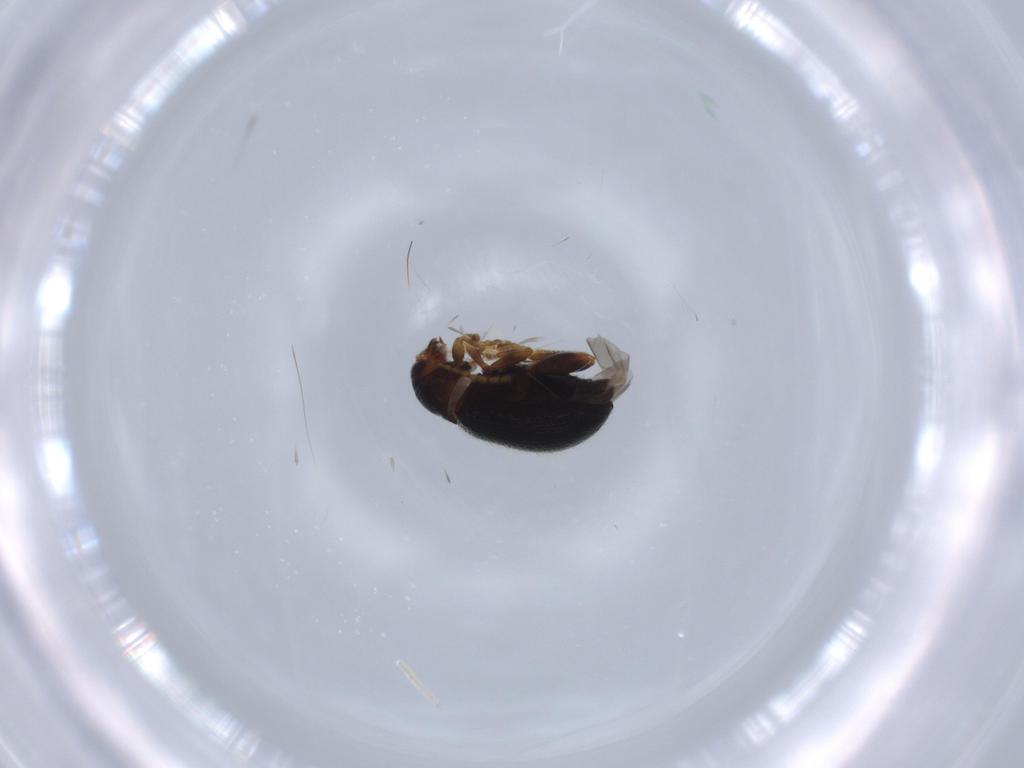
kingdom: Animalia
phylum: Arthropoda
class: Insecta
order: Coleoptera
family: Chrysomelidae
